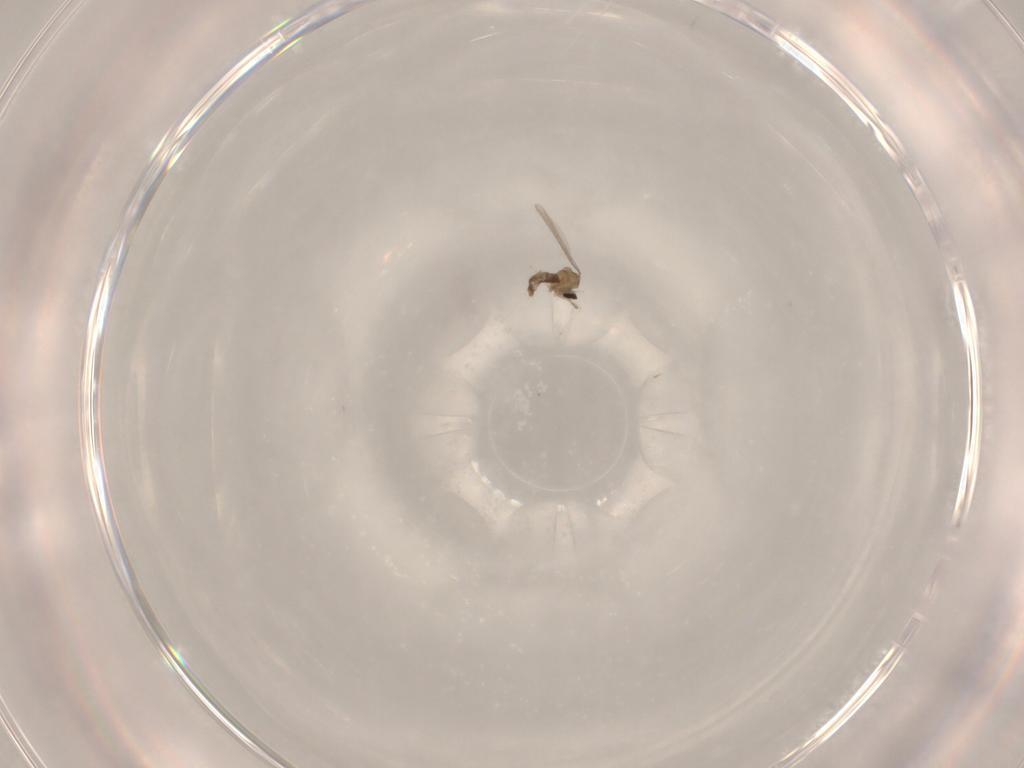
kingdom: Animalia
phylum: Arthropoda
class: Insecta
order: Diptera
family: Cecidomyiidae
